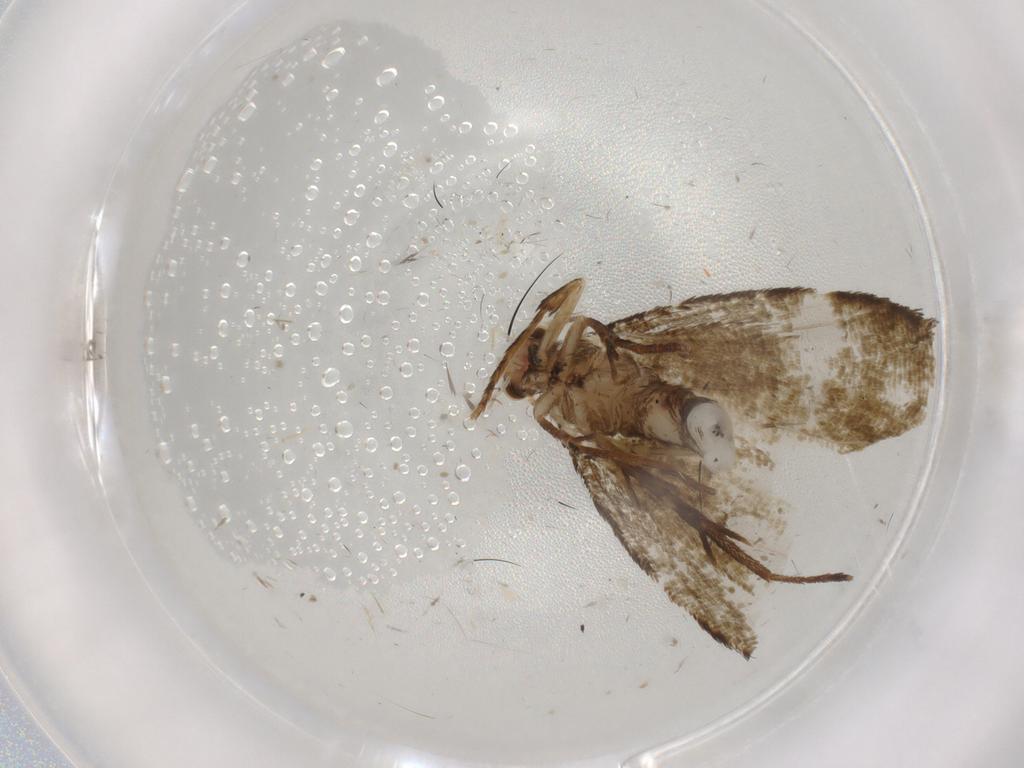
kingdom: Animalia
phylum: Arthropoda
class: Insecta
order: Lepidoptera
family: Tineidae
